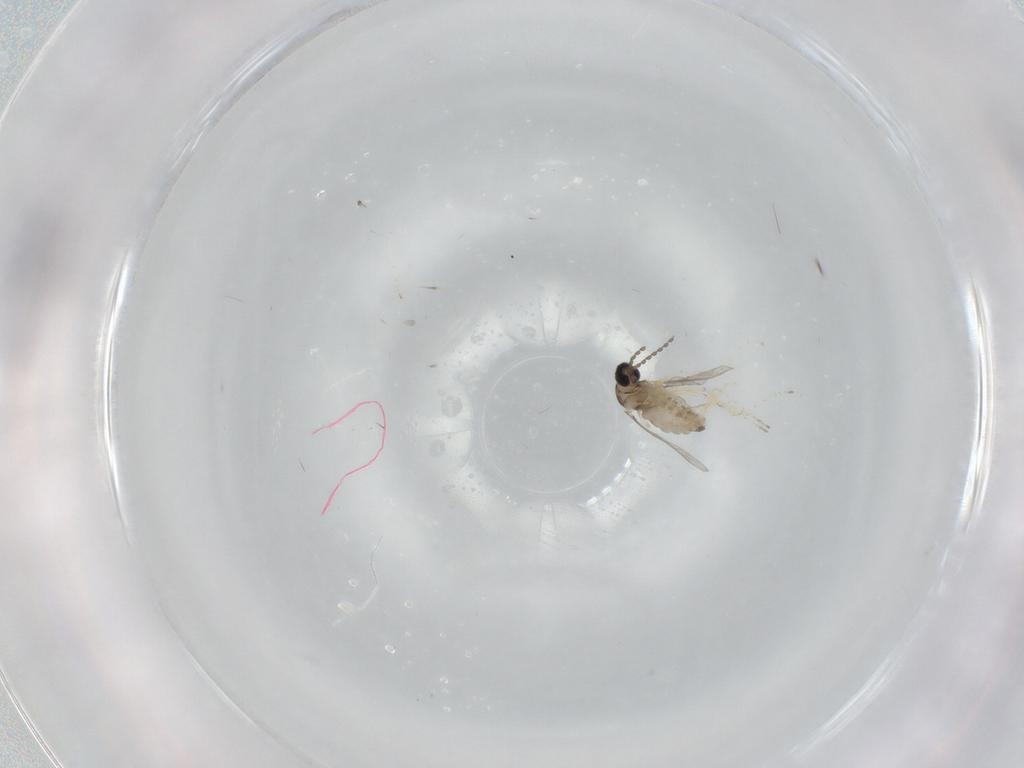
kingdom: Animalia
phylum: Arthropoda
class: Insecta
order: Diptera
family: Cecidomyiidae
